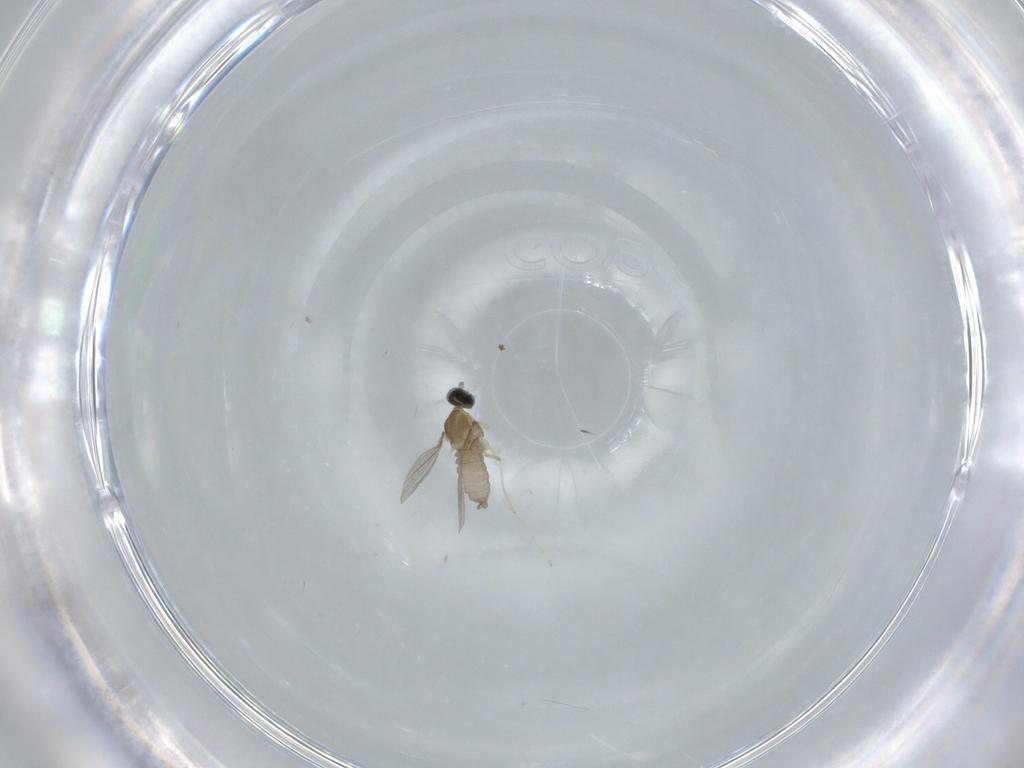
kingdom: Animalia
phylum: Arthropoda
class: Insecta
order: Diptera
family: Cecidomyiidae
